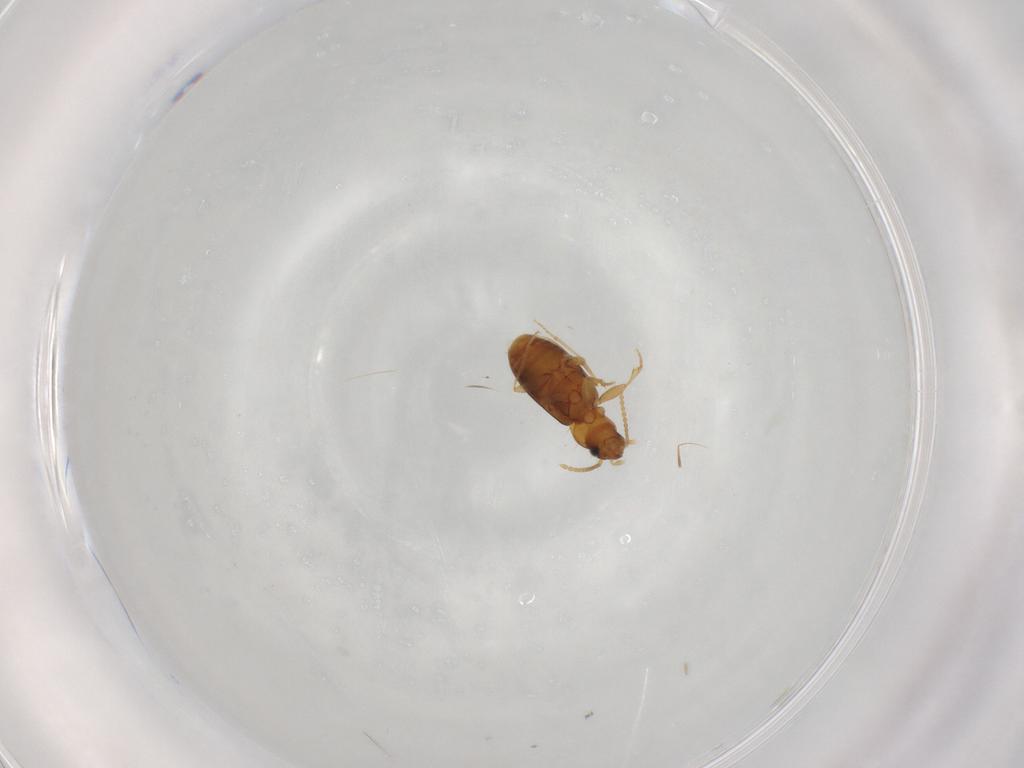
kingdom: Animalia
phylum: Arthropoda
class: Insecta
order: Coleoptera
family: Carabidae
